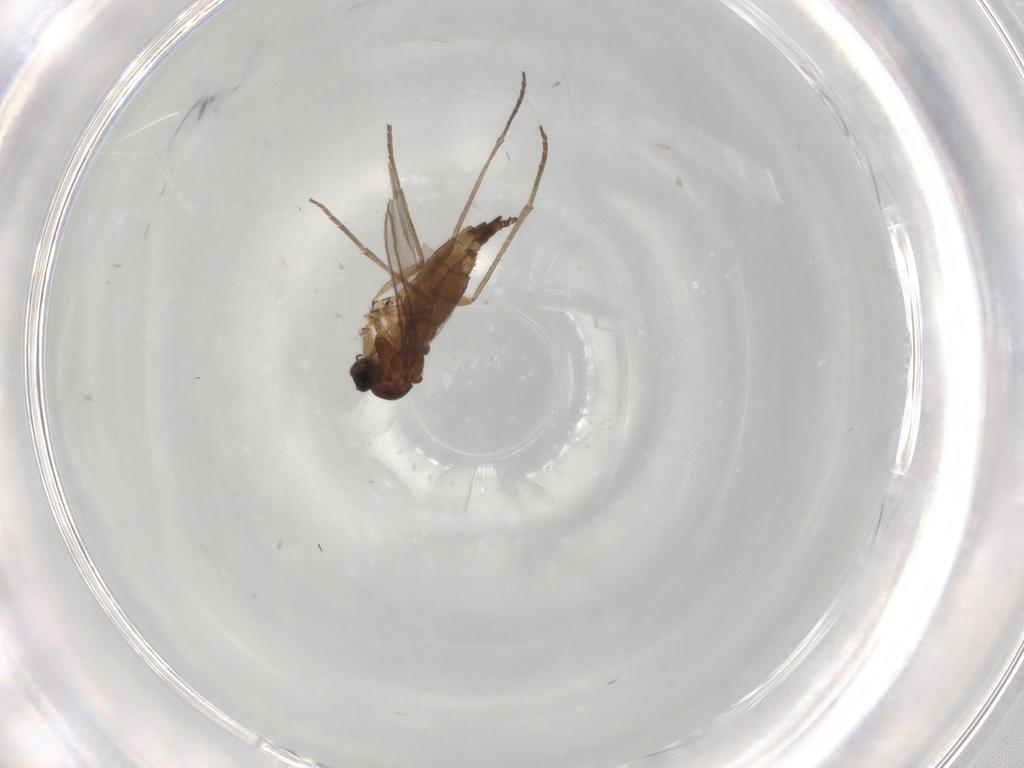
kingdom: Animalia
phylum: Arthropoda
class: Insecta
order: Diptera
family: Sciaridae
